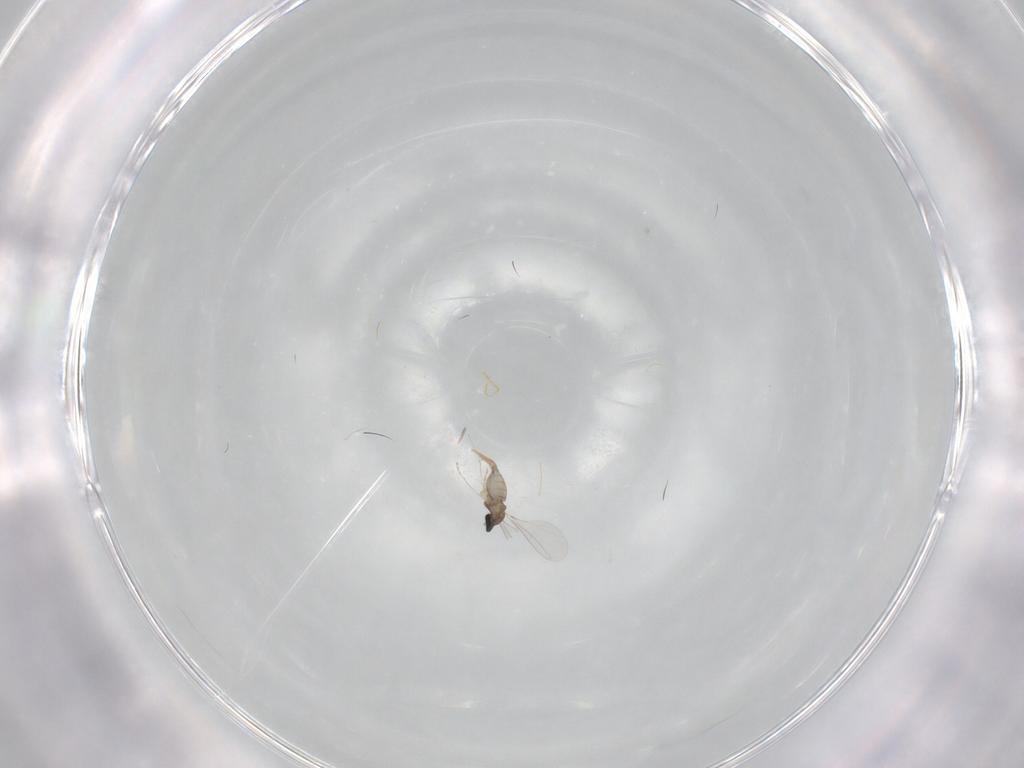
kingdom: Animalia
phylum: Arthropoda
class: Insecta
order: Diptera
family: Cecidomyiidae
